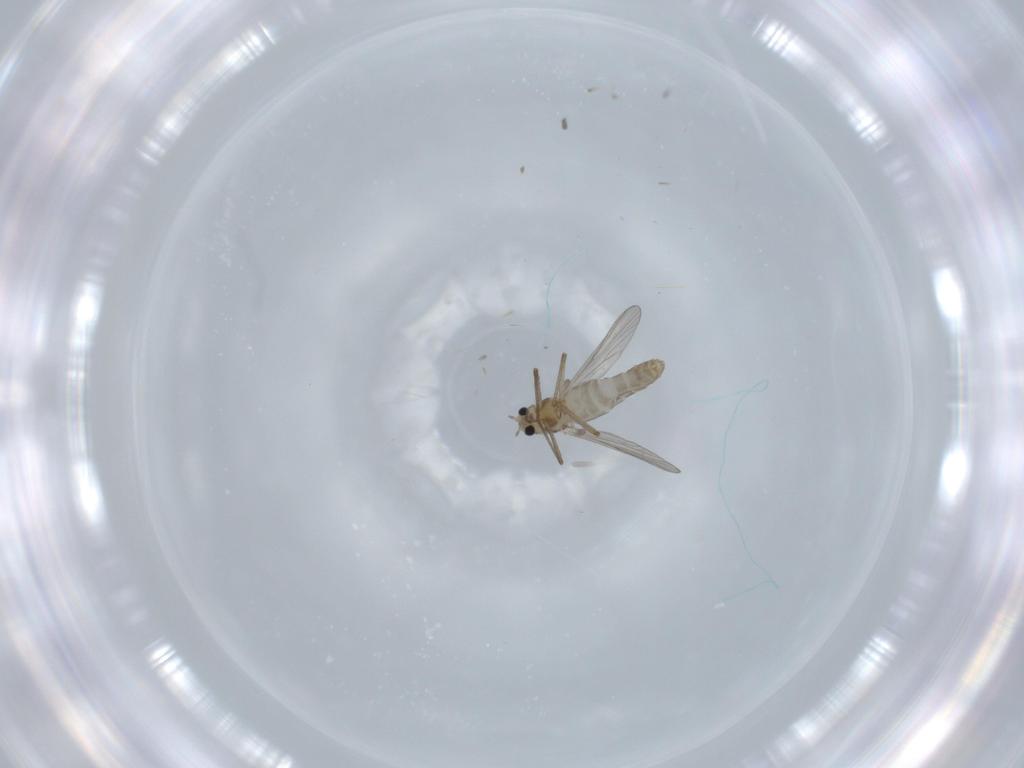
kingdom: Animalia
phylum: Arthropoda
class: Insecta
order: Diptera
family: Chironomidae
